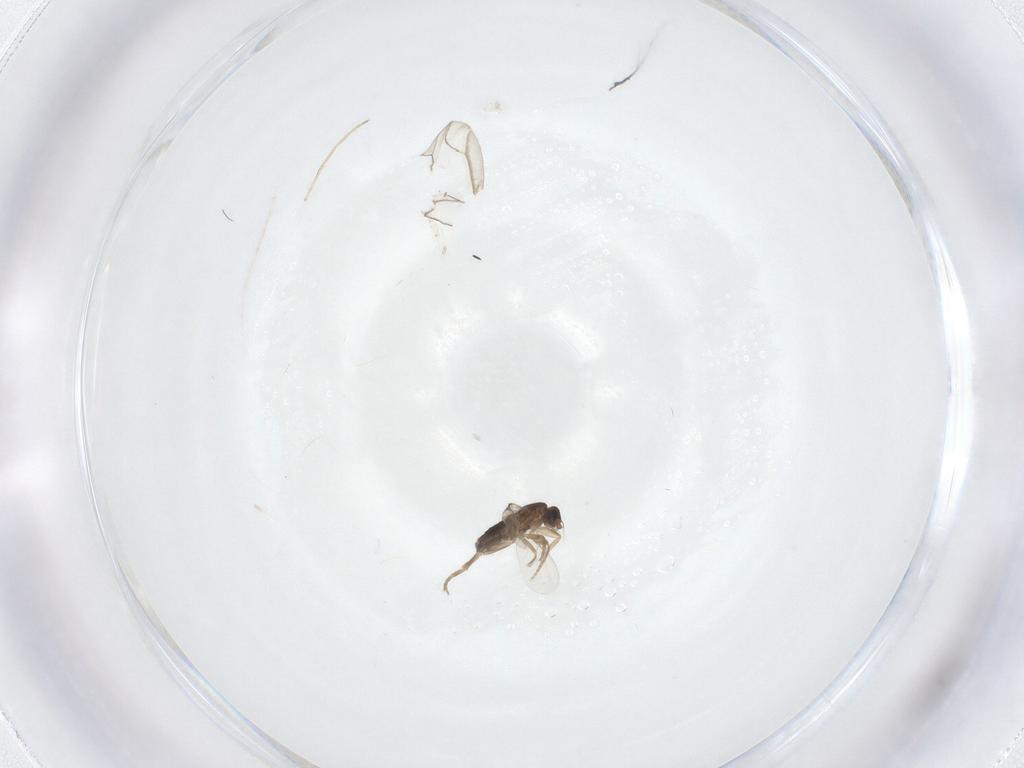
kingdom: Animalia
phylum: Arthropoda
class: Insecta
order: Diptera
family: Phoridae
